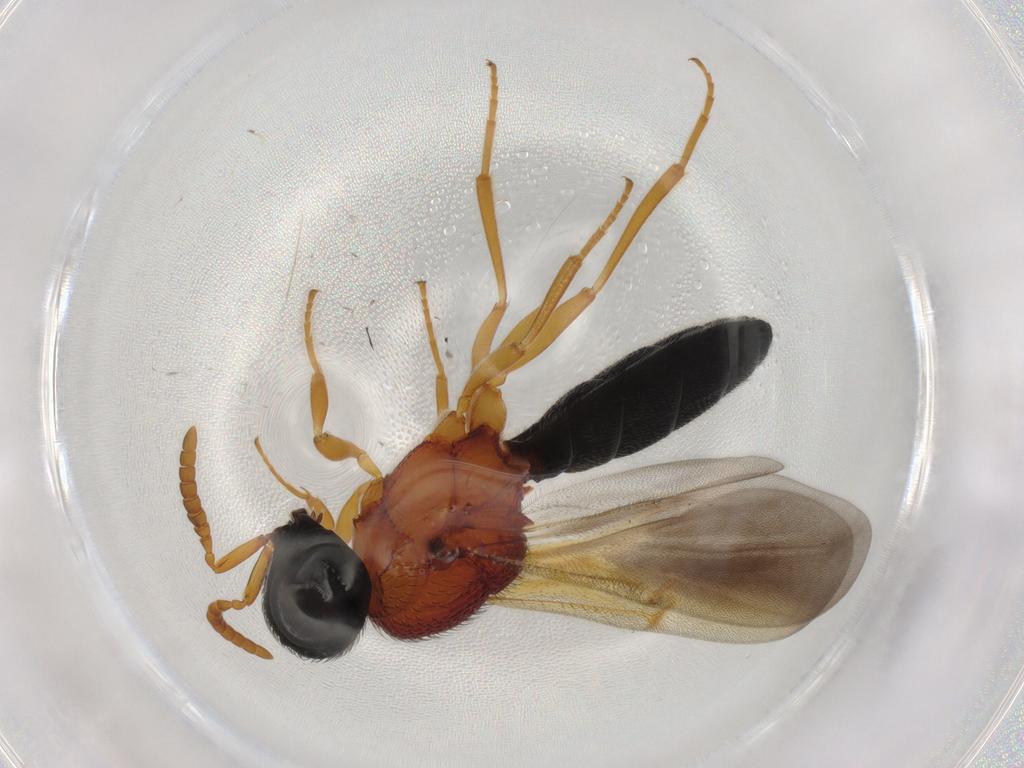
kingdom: Animalia
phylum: Arthropoda
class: Insecta
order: Hymenoptera
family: Scelionidae
